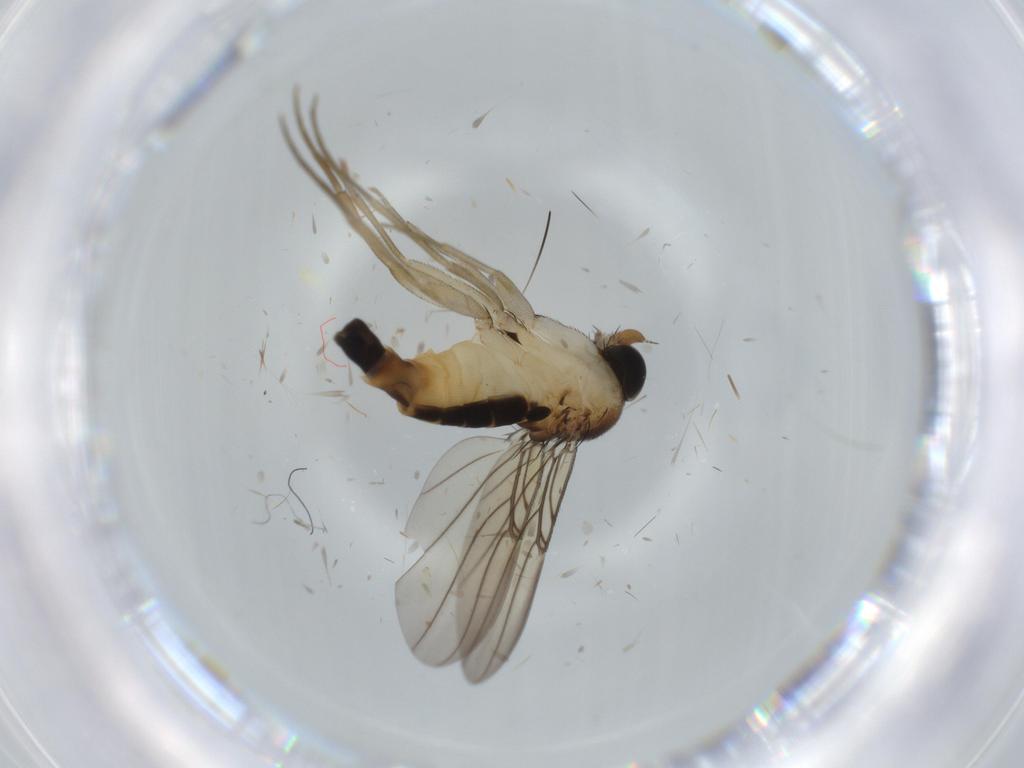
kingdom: Animalia
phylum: Arthropoda
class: Insecta
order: Diptera
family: Phoridae
